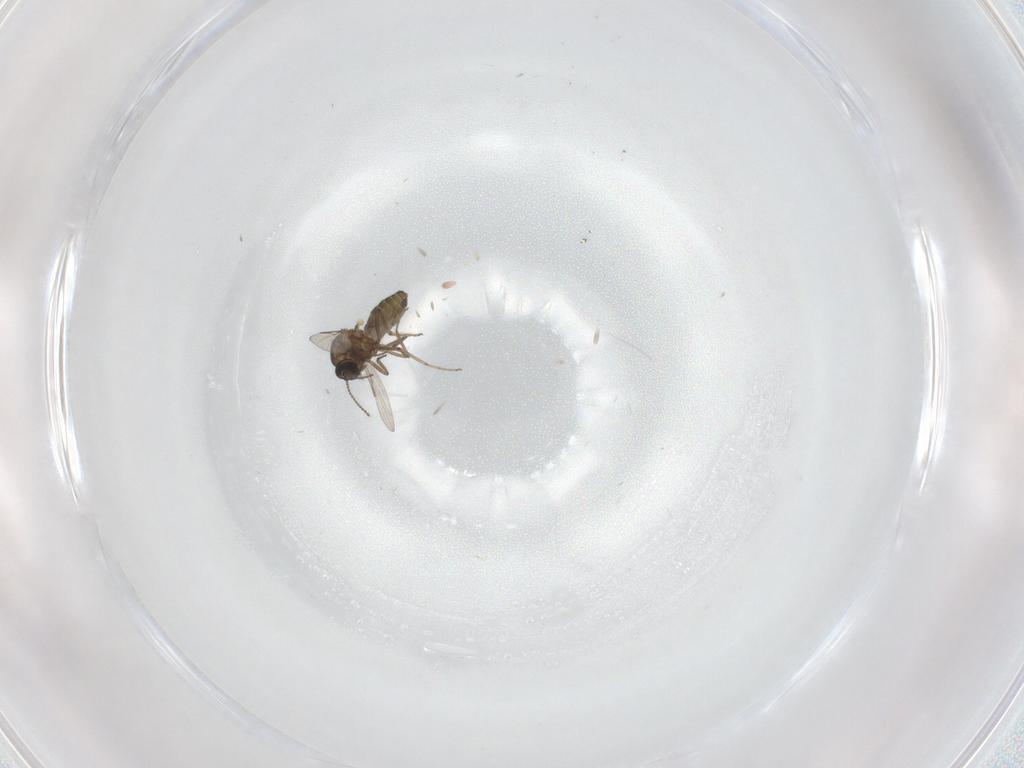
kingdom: Animalia
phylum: Arthropoda
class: Insecta
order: Diptera
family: Ceratopogonidae
